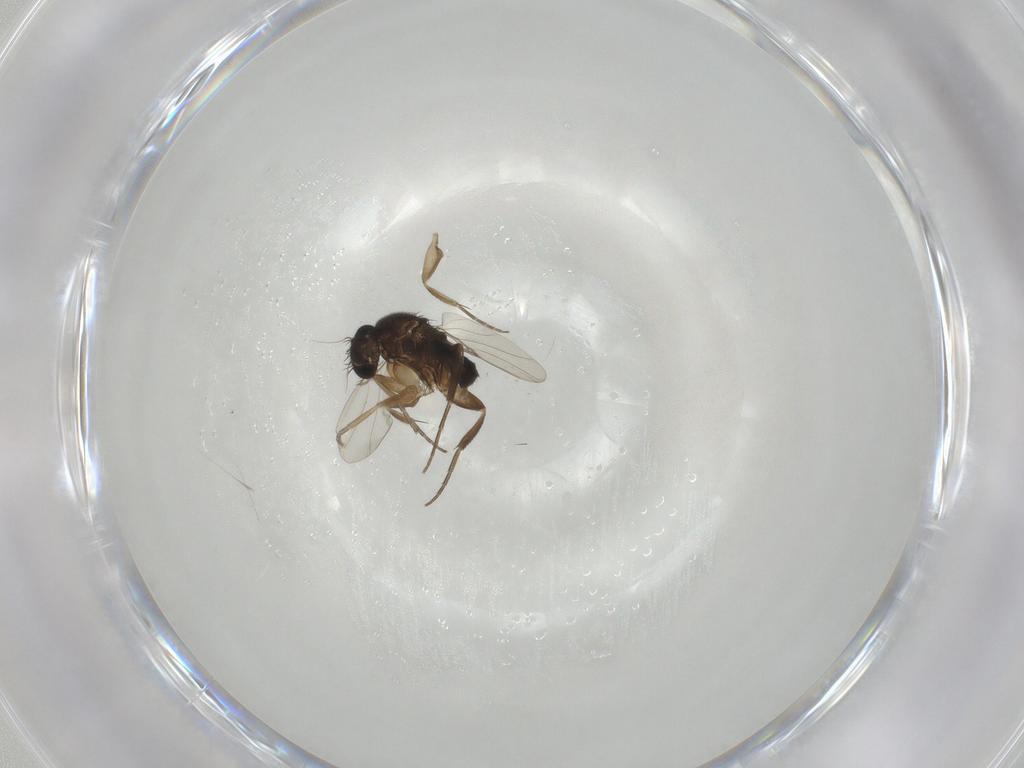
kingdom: Animalia
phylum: Arthropoda
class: Insecta
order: Diptera
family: Phoridae
